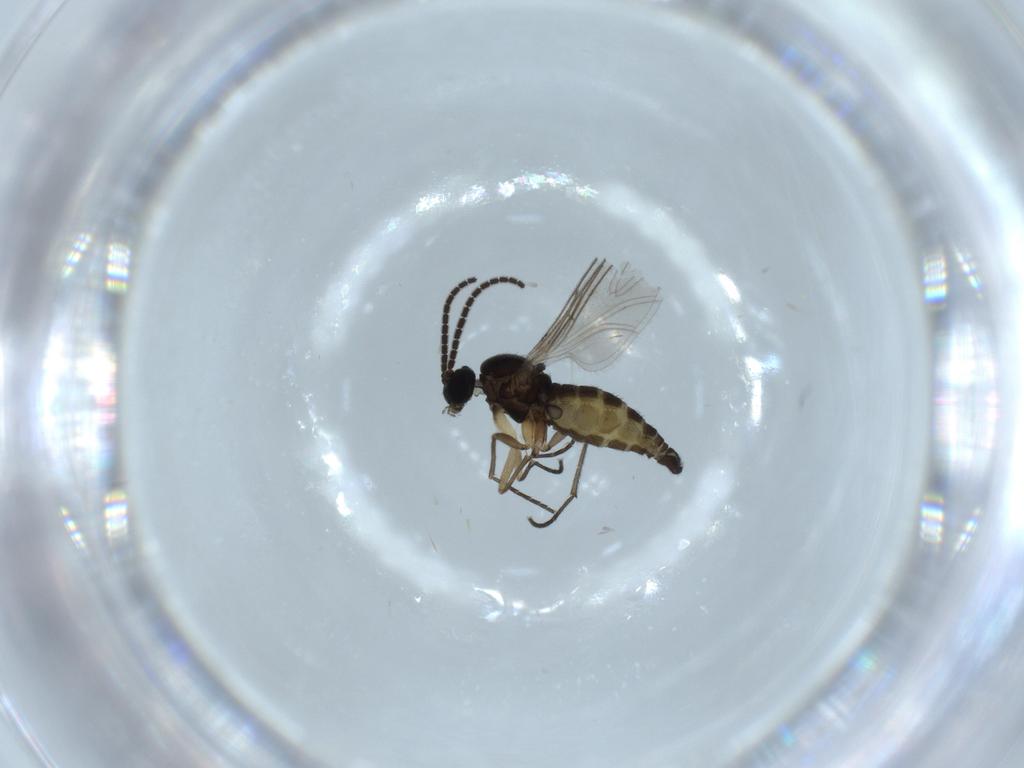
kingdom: Animalia
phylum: Arthropoda
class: Insecta
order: Diptera
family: Sciaridae
